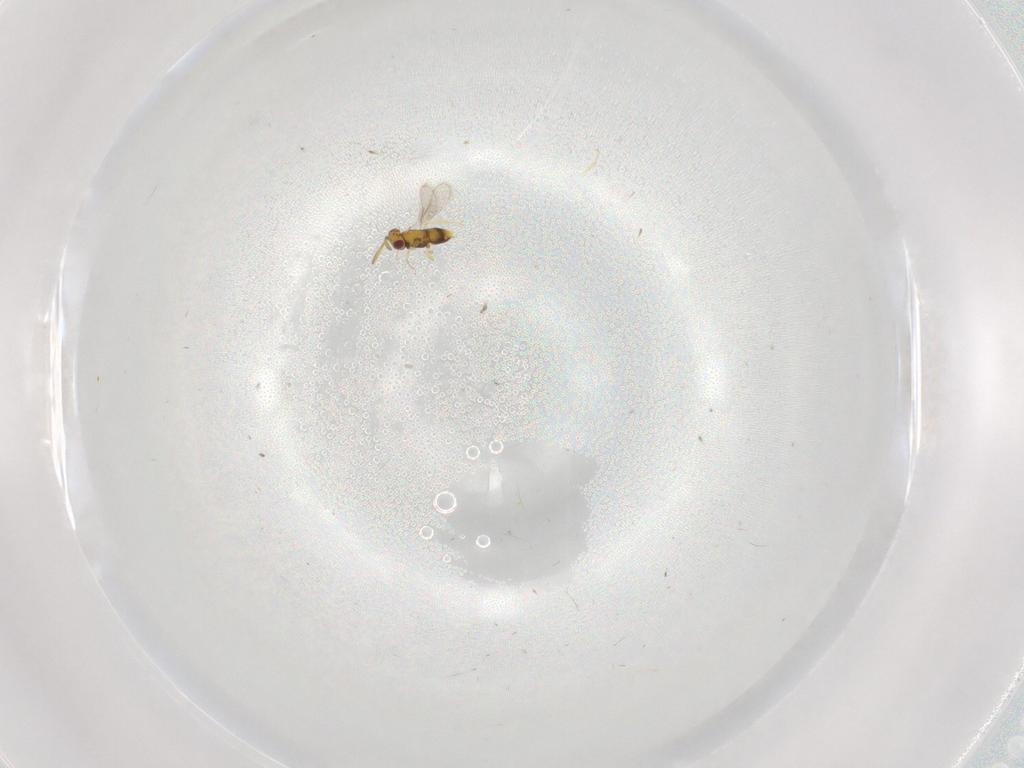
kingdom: Animalia
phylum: Arthropoda
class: Insecta
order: Hymenoptera
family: Aphelinidae
